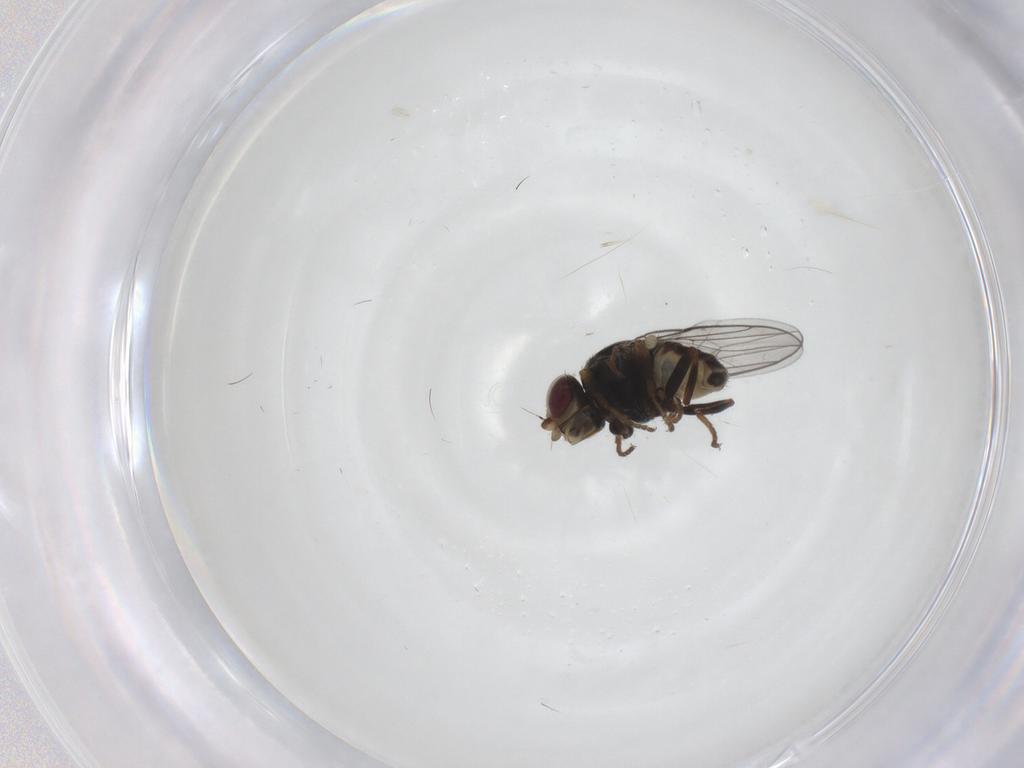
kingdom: Animalia
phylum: Arthropoda
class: Insecta
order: Diptera
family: Chloropidae
